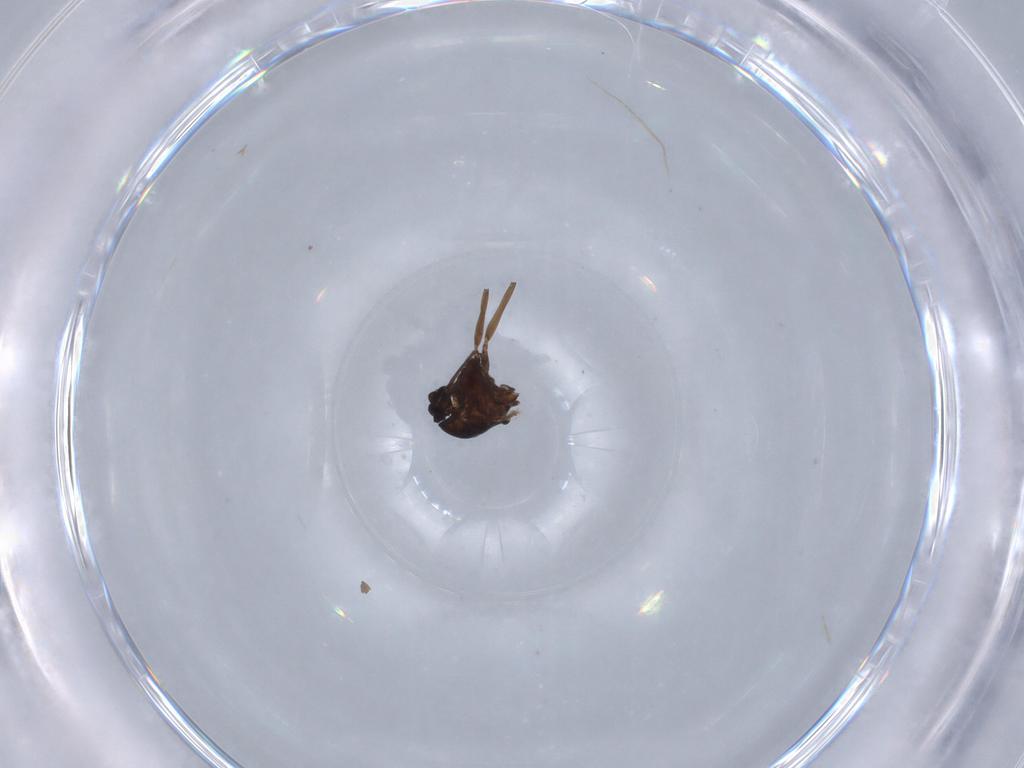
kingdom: Animalia
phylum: Arthropoda
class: Insecta
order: Diptera
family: Chironomidae
